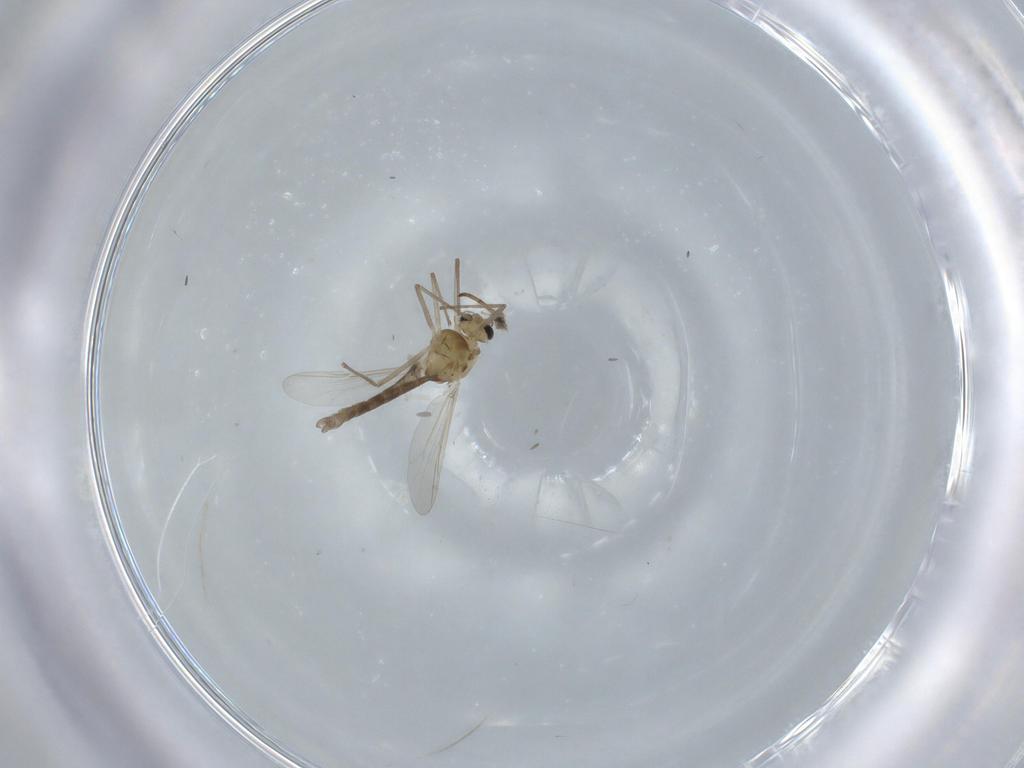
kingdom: Animalia
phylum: Arthropoda
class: Insecta
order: Diptera
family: Chironomidae
